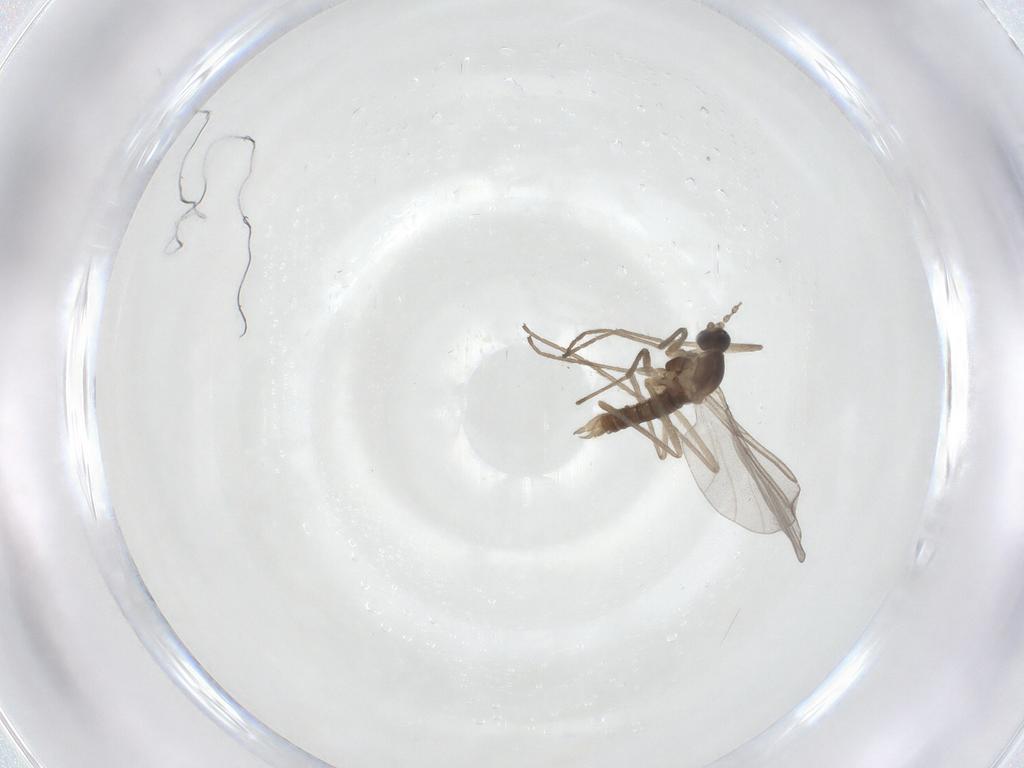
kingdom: Animalia
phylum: Arthropoda
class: Insecta
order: Diptera
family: Cecidomyiidae
